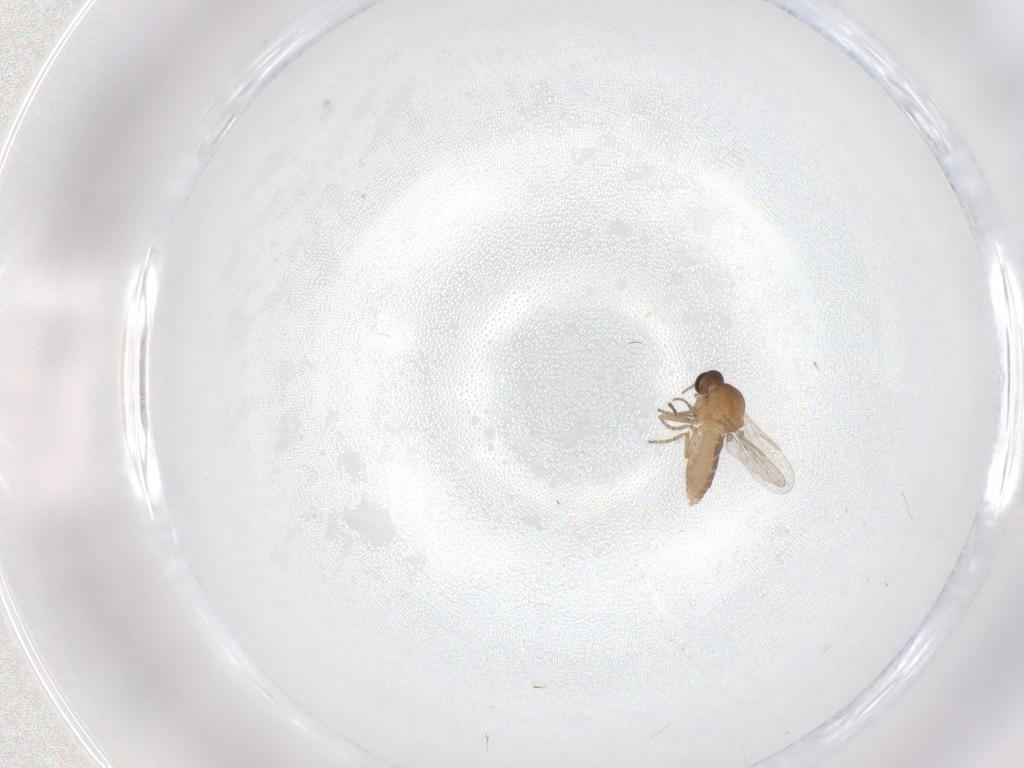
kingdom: Animalia
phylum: Arthropoda
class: Insecta
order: Diptera
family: Ceratopogonidae
